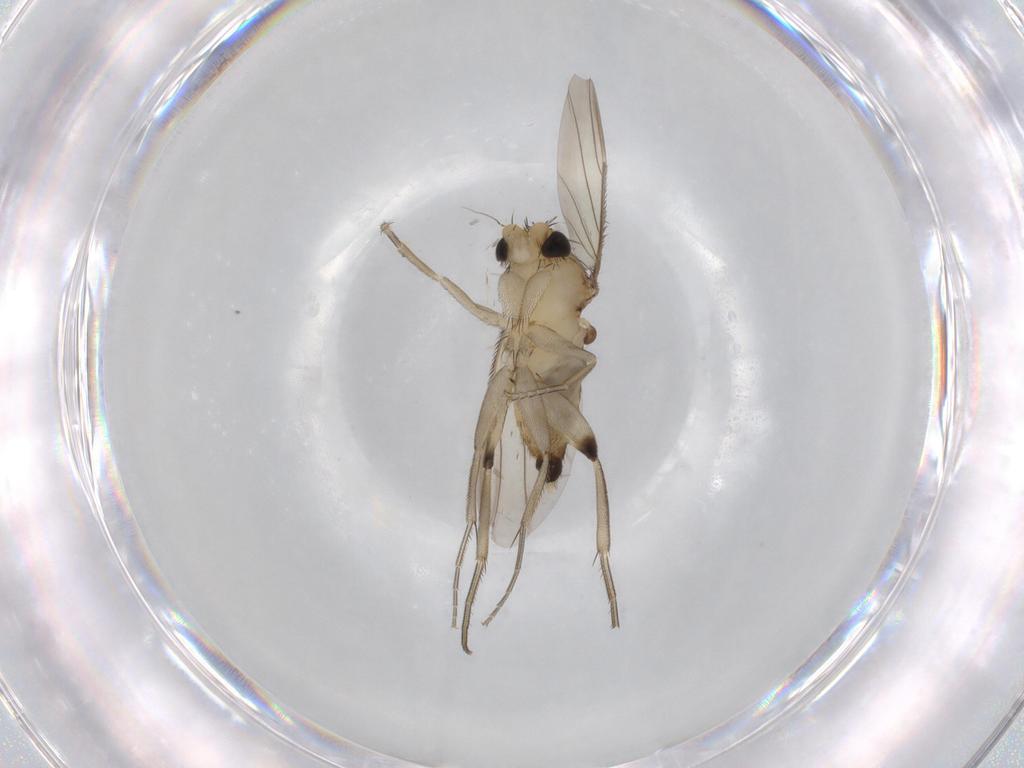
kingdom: Animalia
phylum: Arthropoda
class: Insecta
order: Diptera
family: Phoridae
